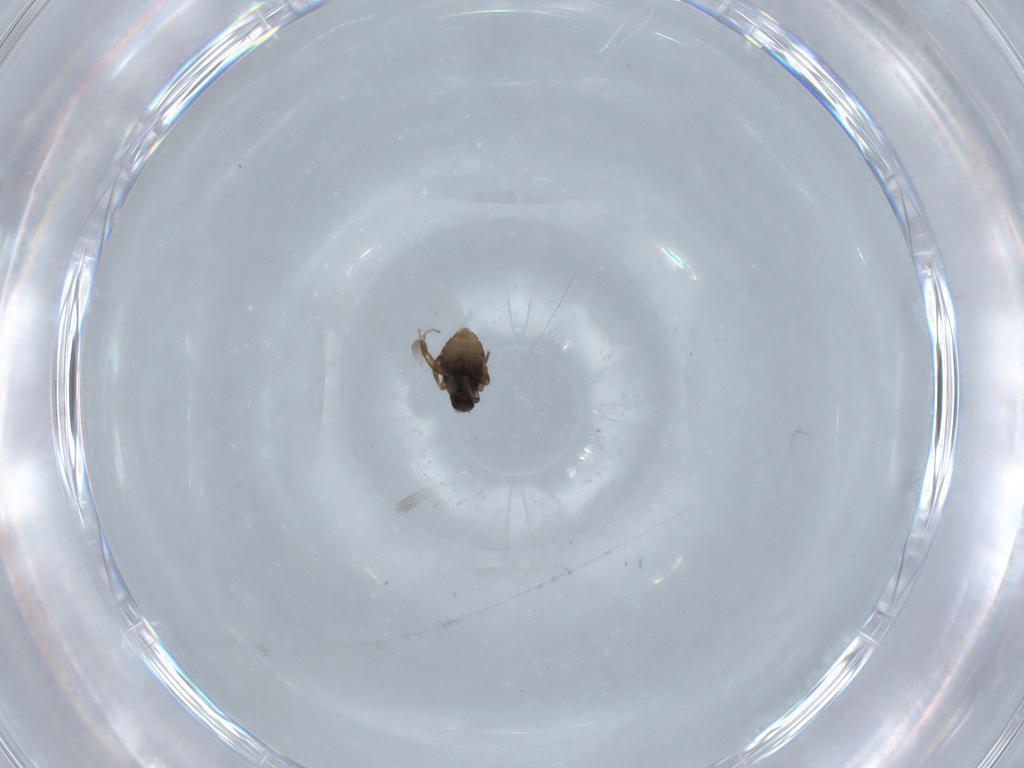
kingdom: Animalia
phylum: Arthropoda
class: Insecta
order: Diptera
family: Cecidomyiidae
